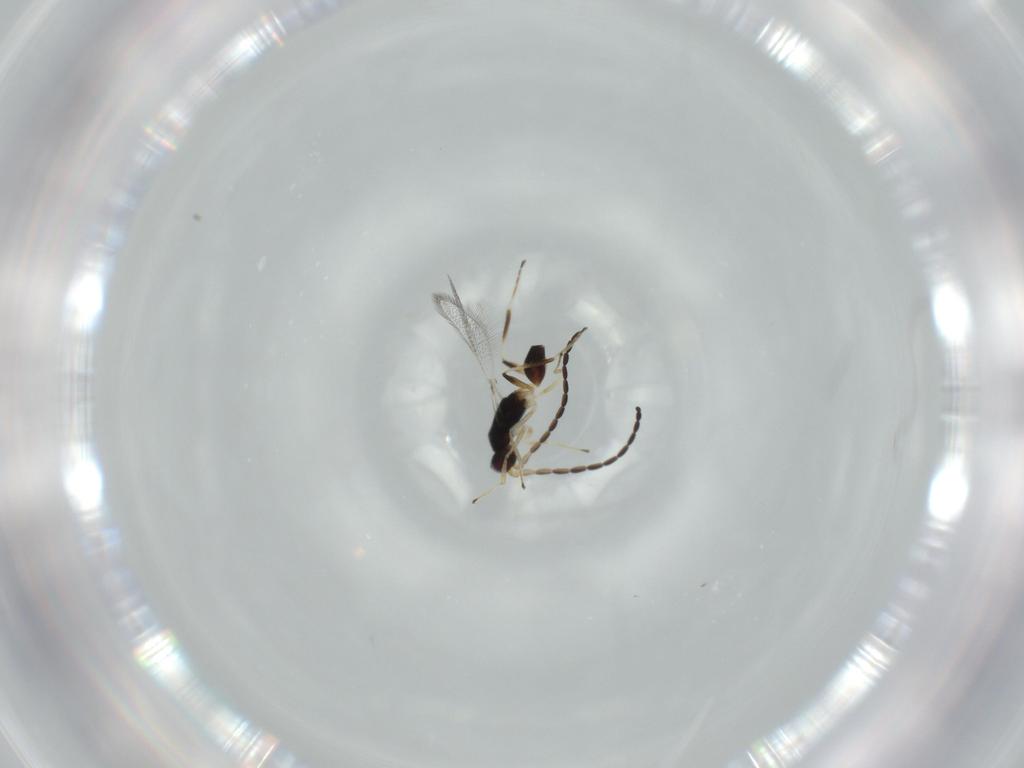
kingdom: Animalia
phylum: Arthropoda
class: Insecta
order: Hymenoptera
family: Mymaridae
